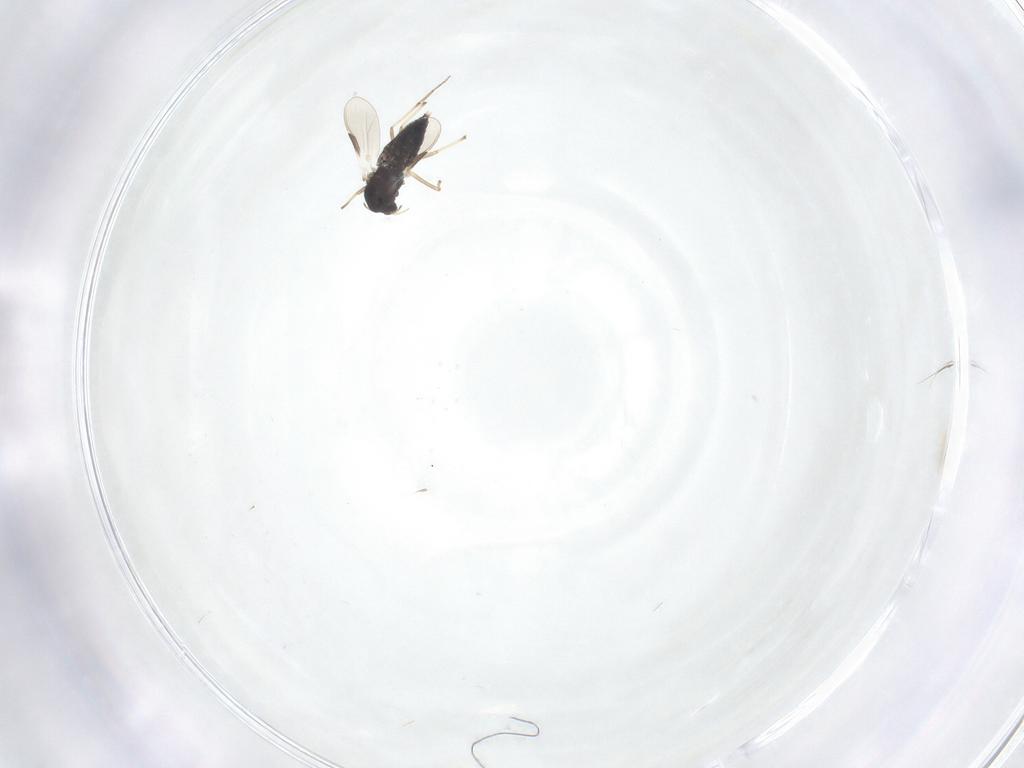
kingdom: Animalia
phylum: Arthropoda
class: Insecta
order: Diptera
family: Chironomidae
